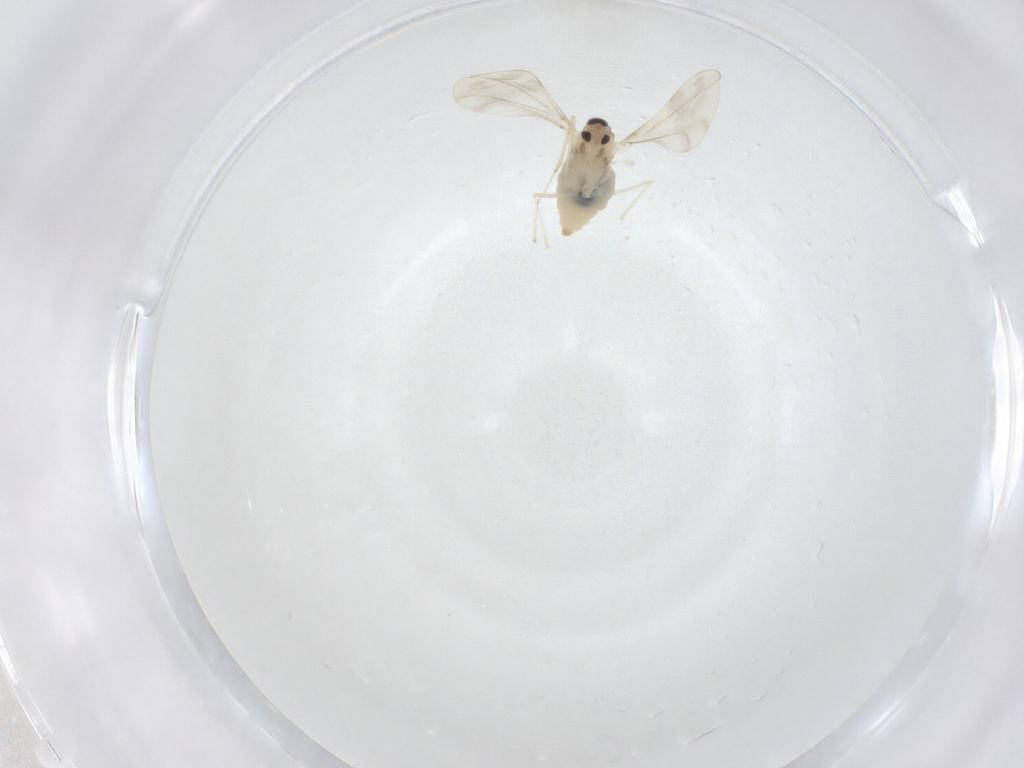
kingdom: Animalia
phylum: Arthropoda
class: Insecta
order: Diptera
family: Cecidomyiidae
